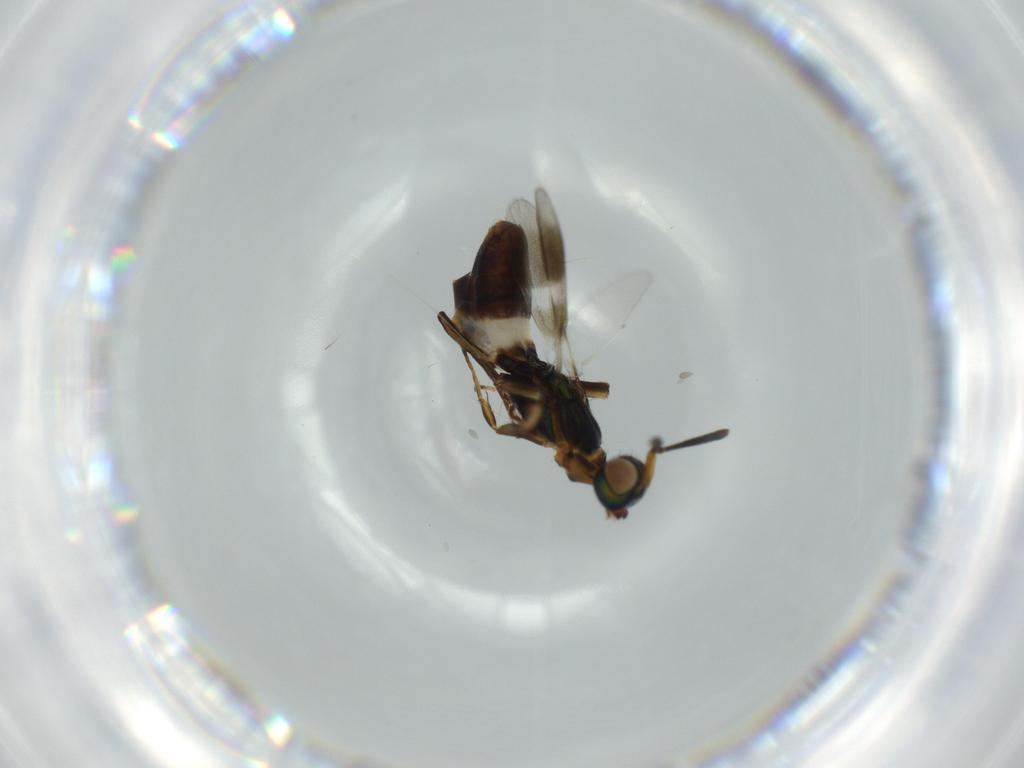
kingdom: Animalia
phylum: Arthropoda
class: Insecta
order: Hymenoptera
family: Eupelmidae
